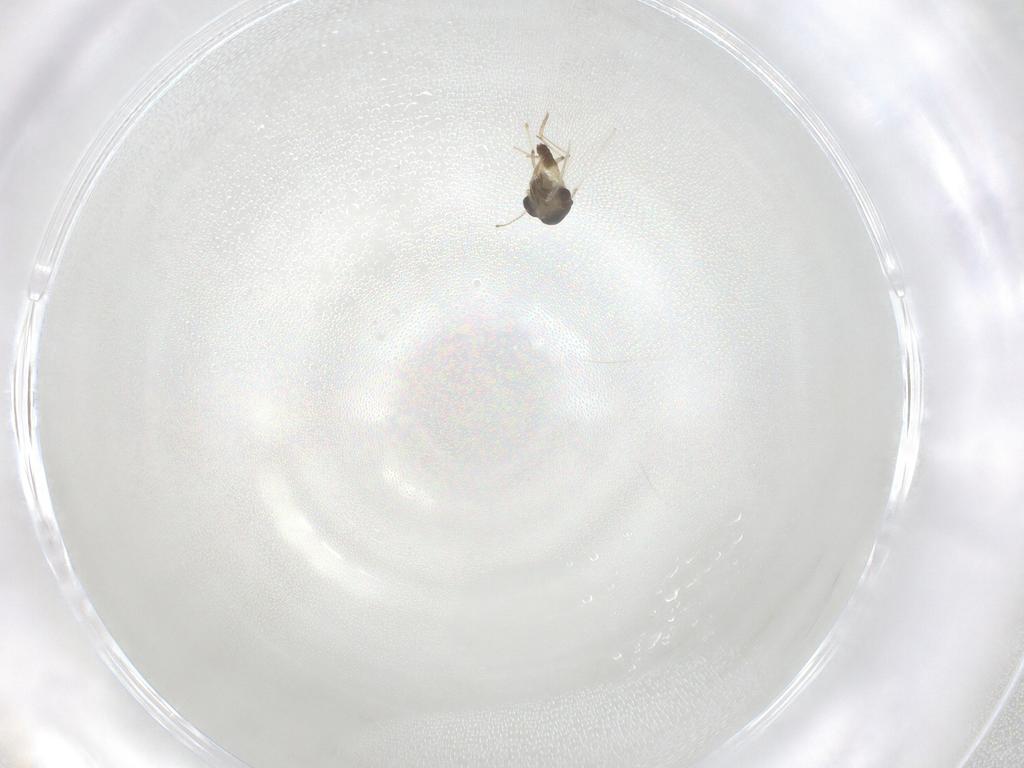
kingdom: Animalia
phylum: Arthropoda
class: Insecta
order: Diptera
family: Chironomidae
